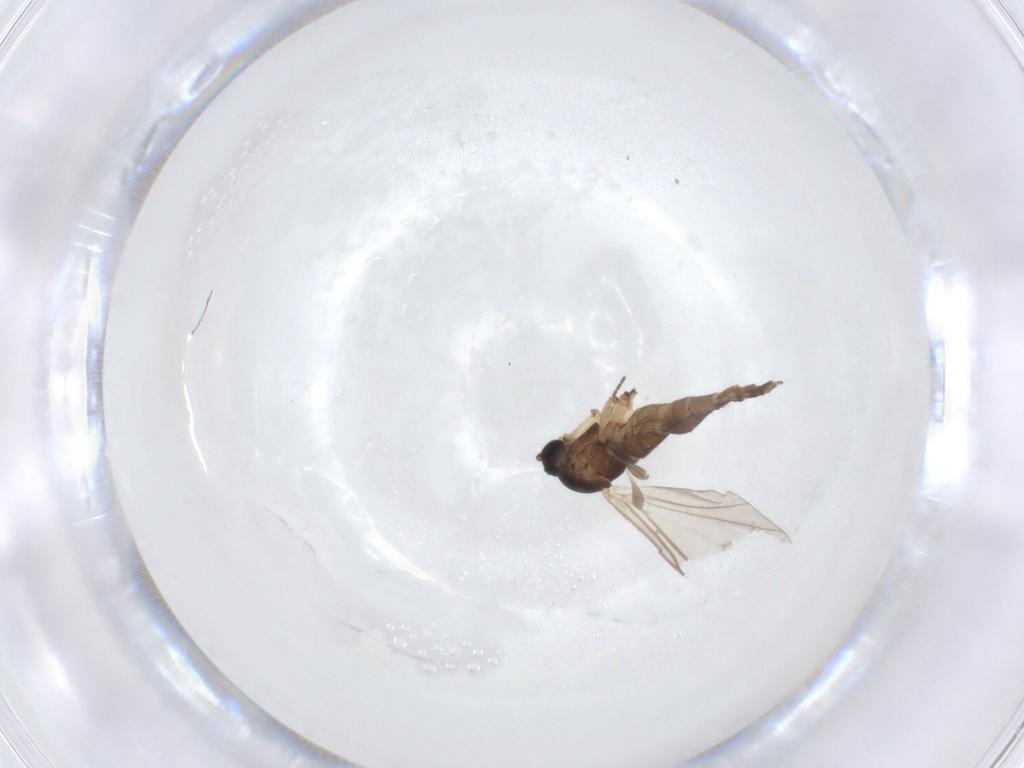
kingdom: Animalia
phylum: Arthropoda
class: Insecta
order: Diptera
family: Sciaridae
